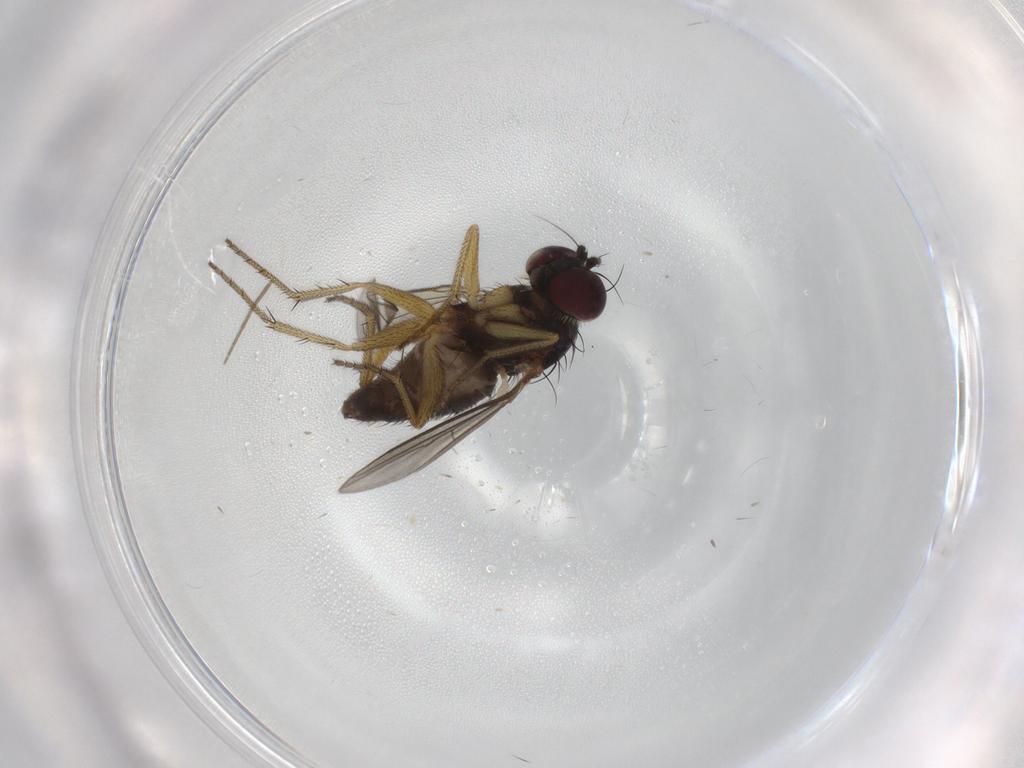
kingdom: Animalia
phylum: Arthropoda
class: Insecta
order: Diptera
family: Dolichopodidae
